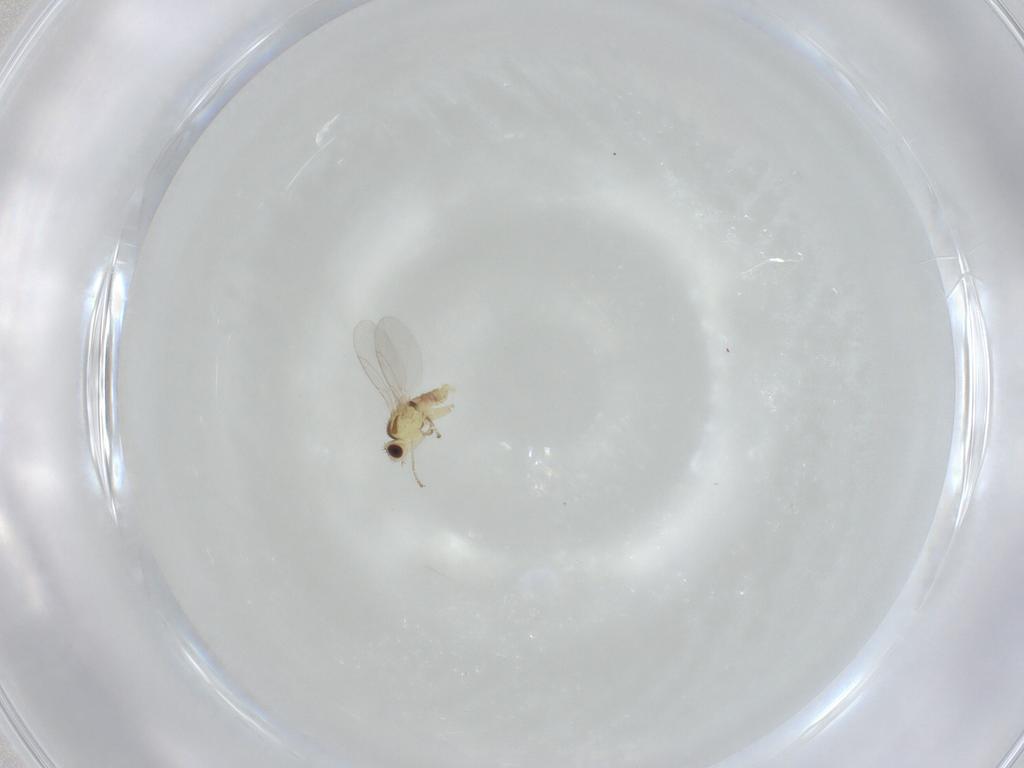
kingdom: Animalia
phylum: Arthropoda
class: Insecta
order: Diptera
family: Agromyzidae
